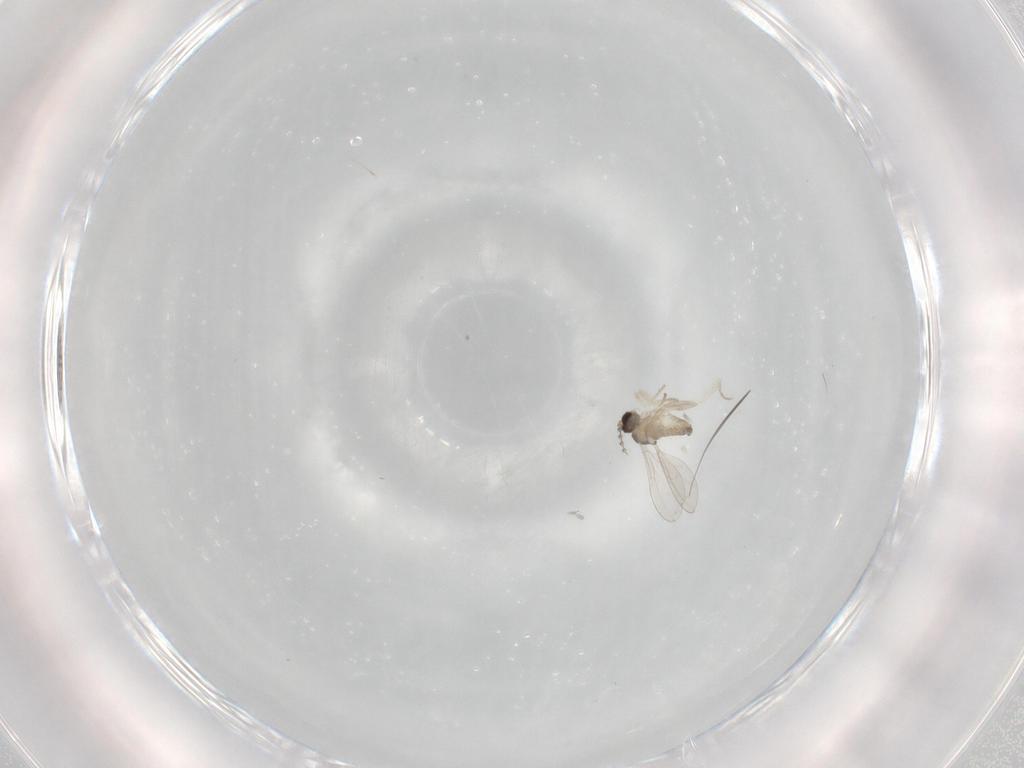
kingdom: Animalia
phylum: Arthropoda
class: Insecta
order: Diptera
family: Cecidomyiidae
